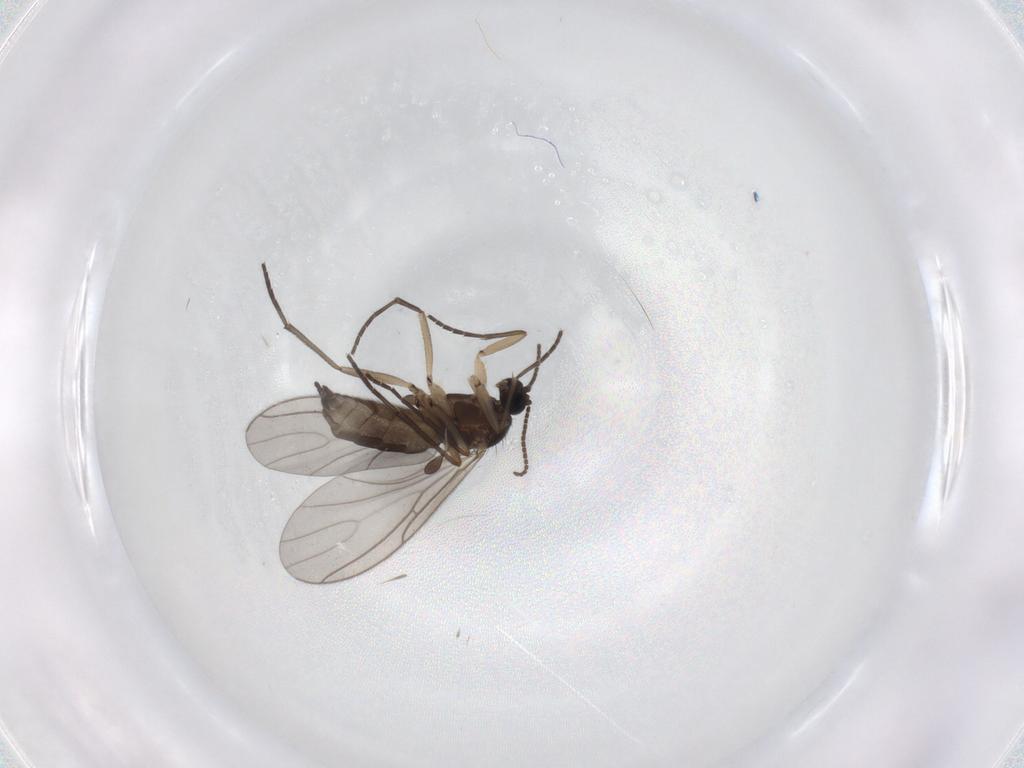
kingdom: Animalia
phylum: Arthropoda
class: Insecta
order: Diptera
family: Sciaridae
